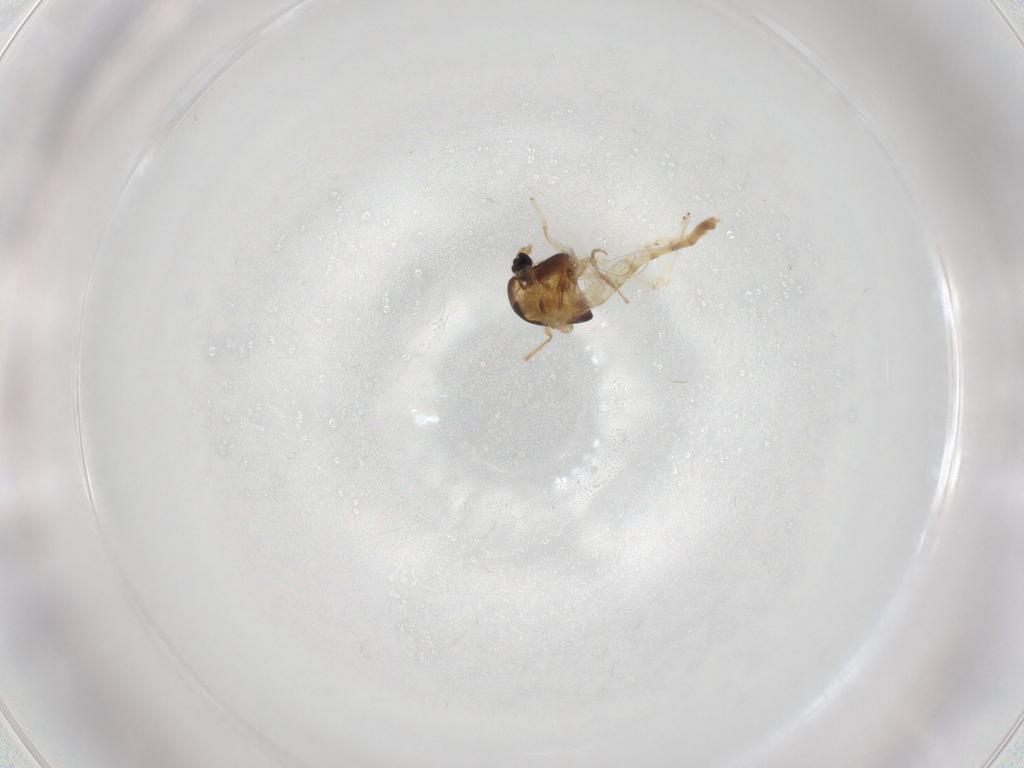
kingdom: Animalia
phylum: Arthropoda
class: Insecta
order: Diptera
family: Chironomidae
